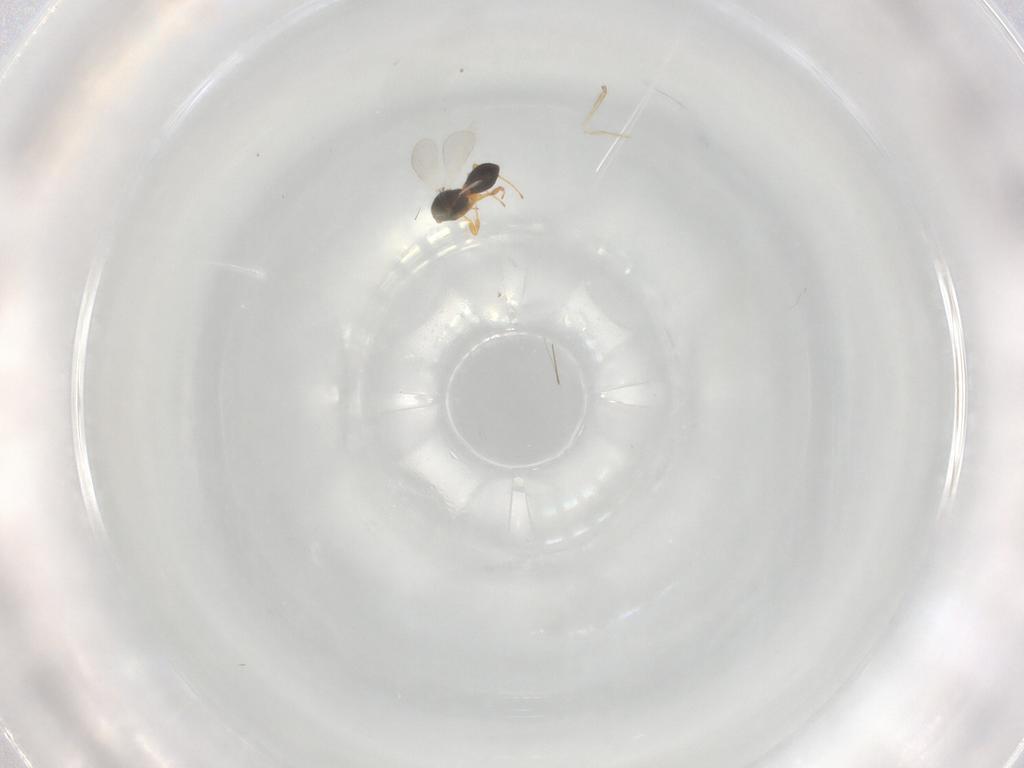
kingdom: Animalia
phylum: Arthropoda
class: Insecta
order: Hymenoptera
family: Platygastridae
